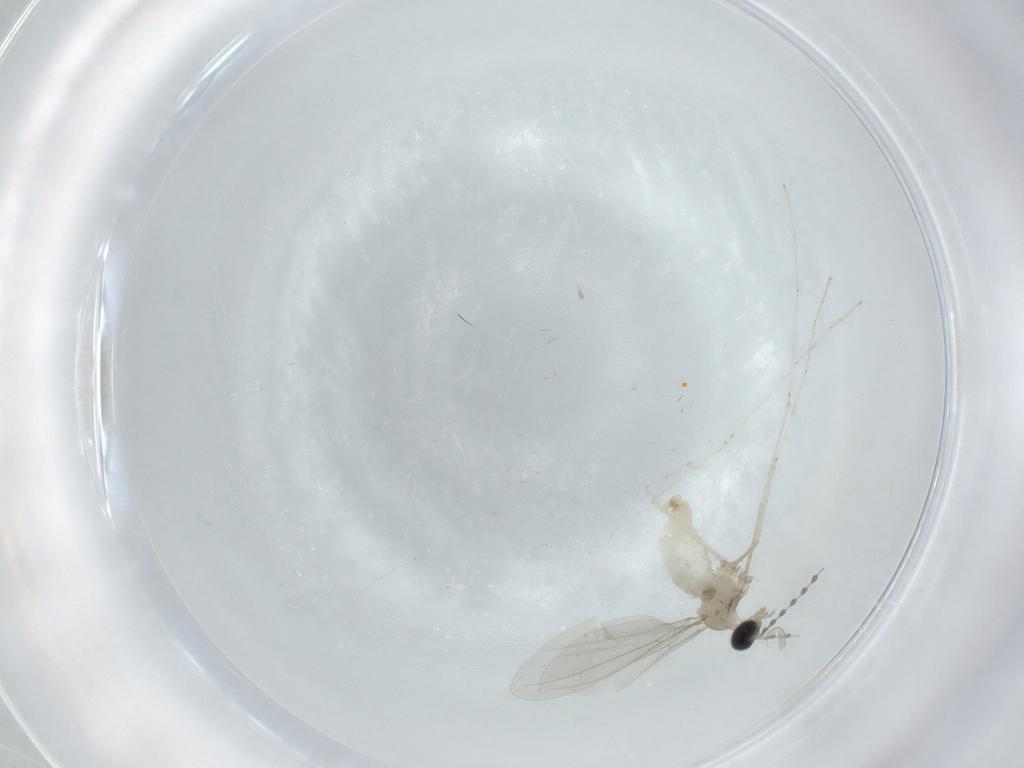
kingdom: Animalia
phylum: Arthropoda
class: Insecta
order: Diptera
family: Cecidomyiidae
